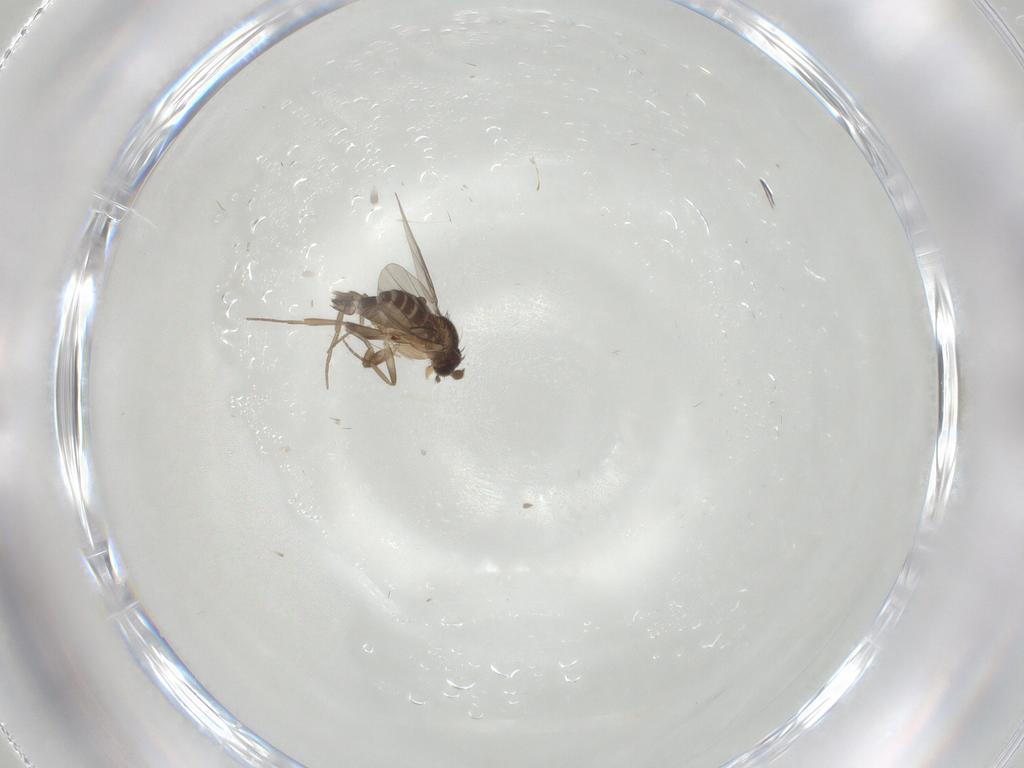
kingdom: Animalia
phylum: Arthropoda
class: Insecta
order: Diptera
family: Phoridae
